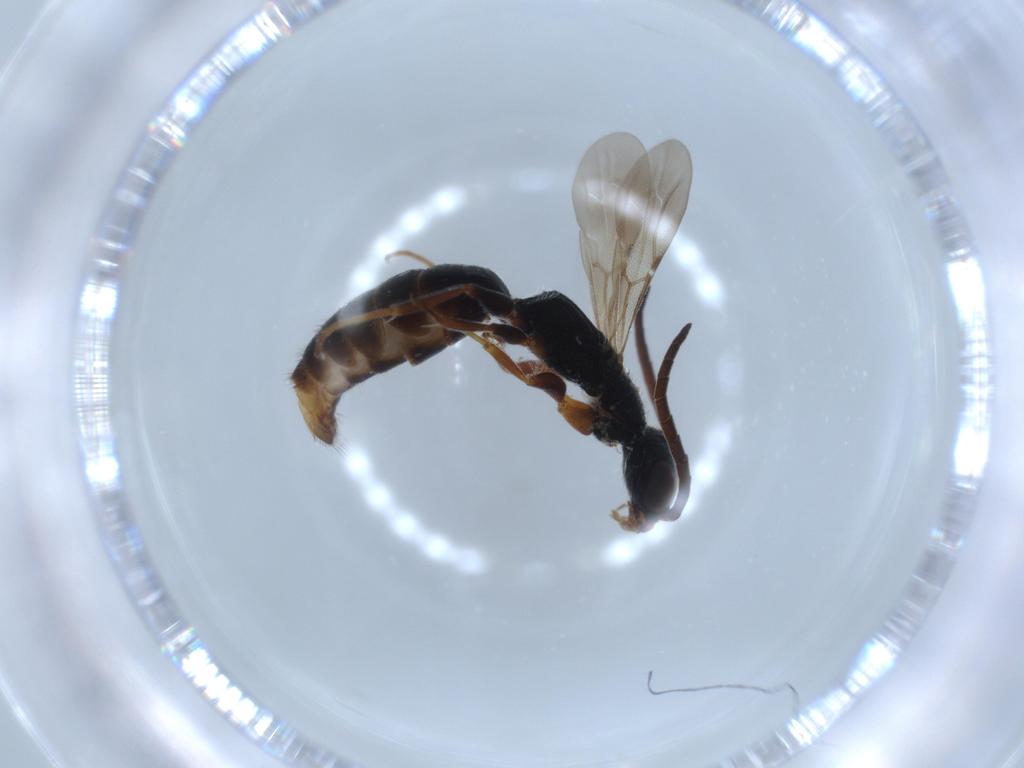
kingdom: Animalia
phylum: Arthropoda
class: Insecta
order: Hymenoptera
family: Bethylidae
